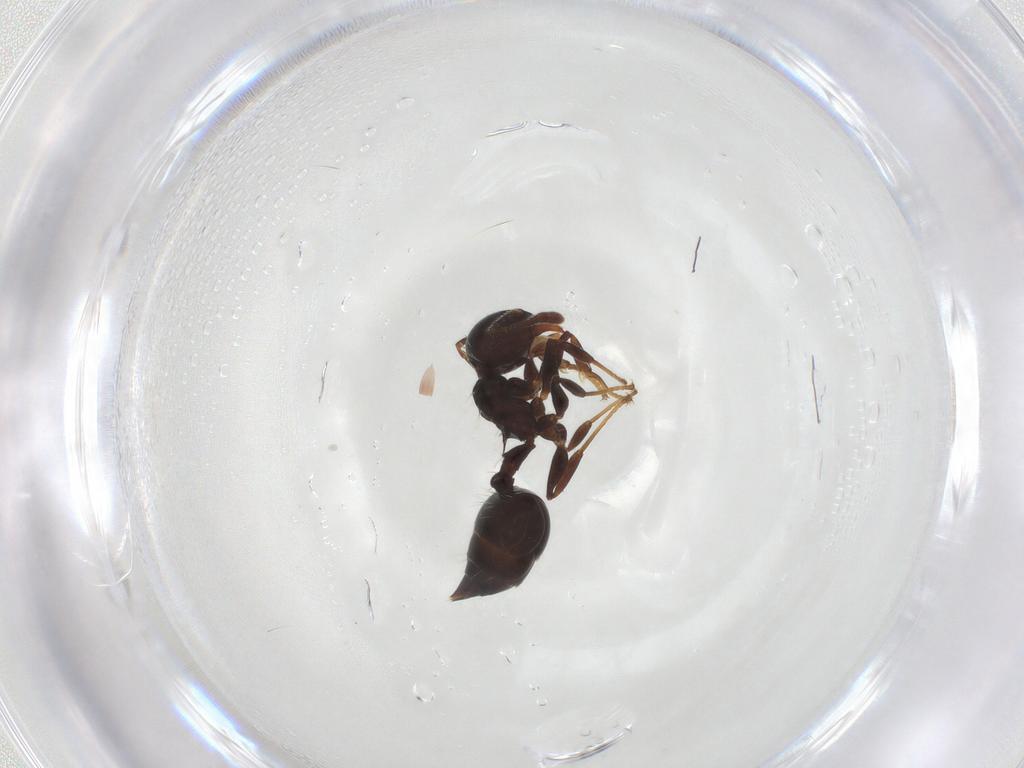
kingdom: Animalia
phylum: Arthropoda
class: Insecta
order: Hymenoptera
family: Formicidae
